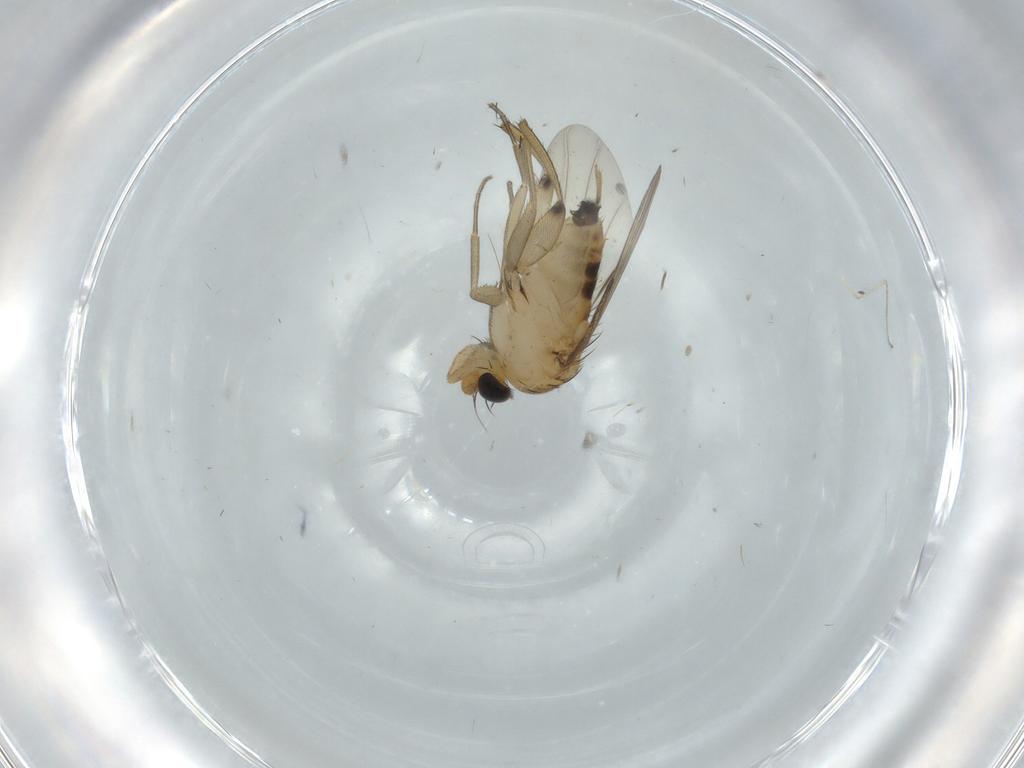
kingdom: Animalia
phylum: Arthropoda
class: Insecta
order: Diptera
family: Phoridae
